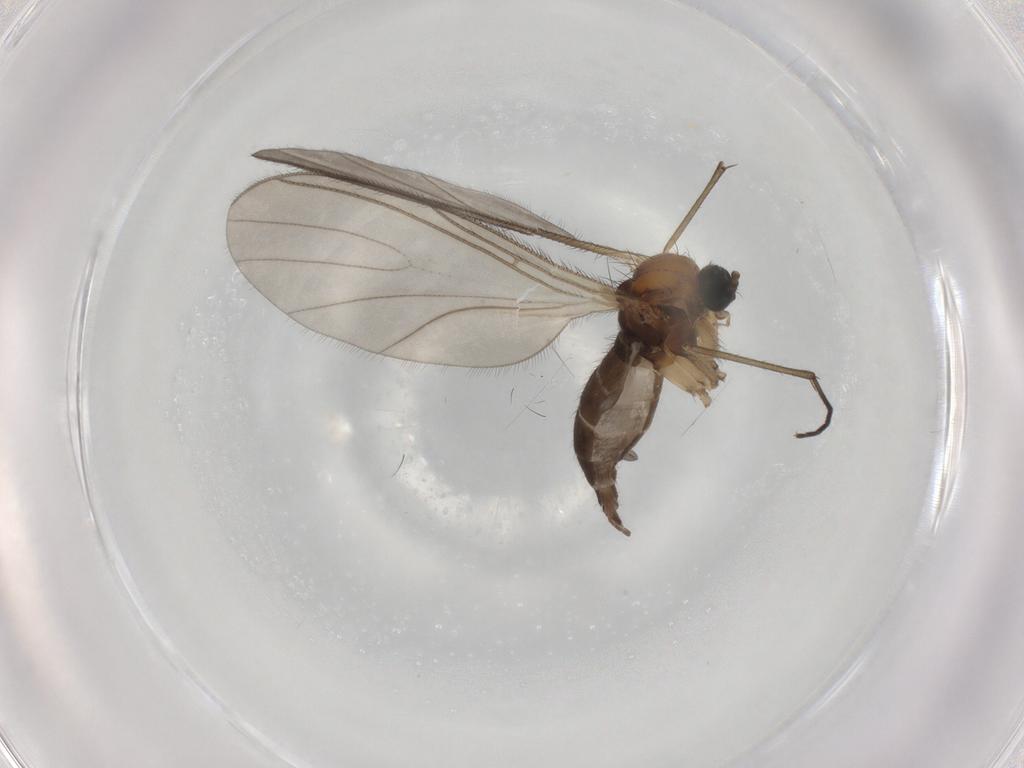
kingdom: Animalia
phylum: Arthropoda
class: Insecta
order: Diptera
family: Sciaridae
